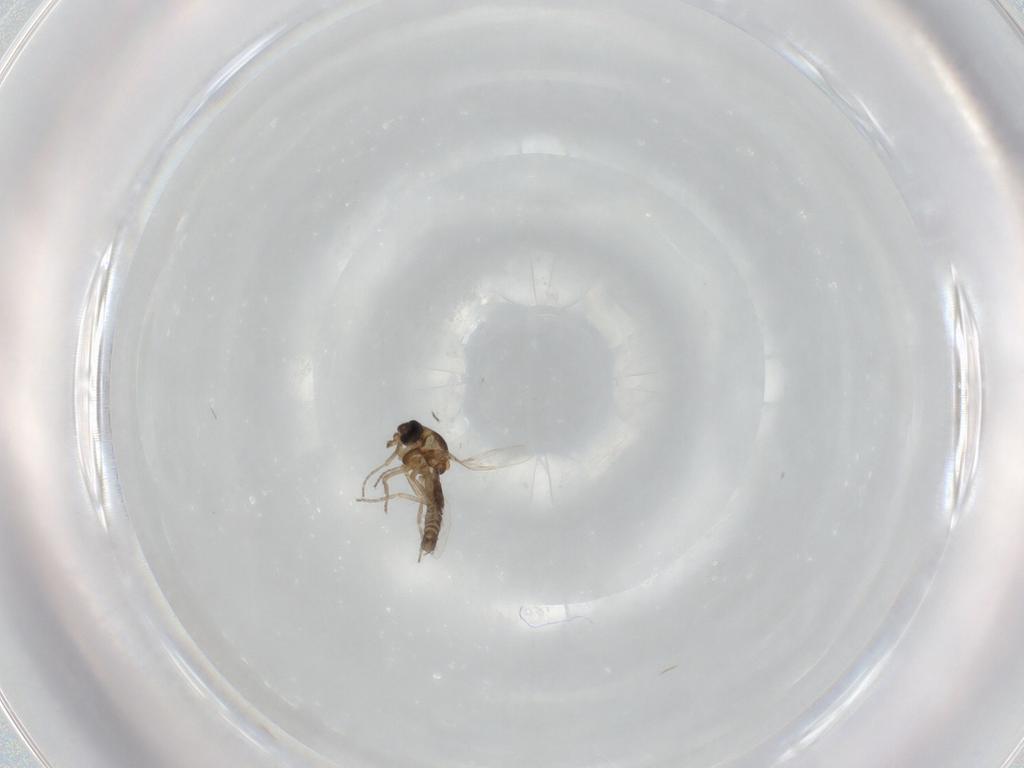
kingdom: Animalia
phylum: Arthropoda
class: Insecta
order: Diptera
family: Ceratopogonidae
